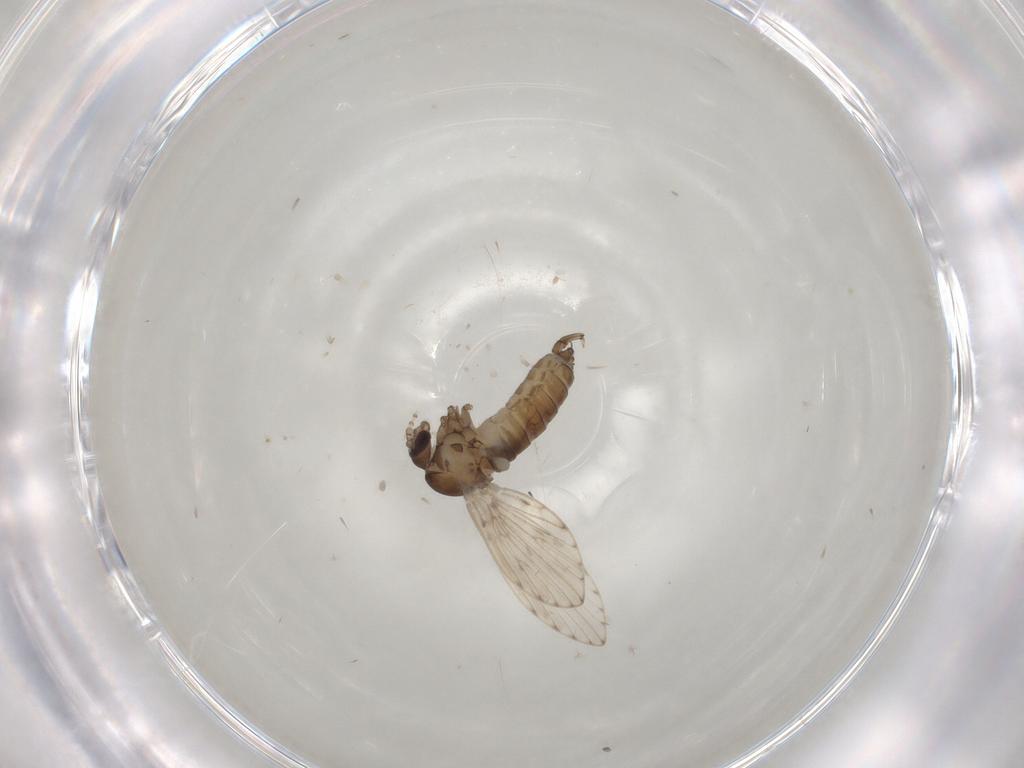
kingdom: Animalia
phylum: Arthropoda
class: Insecta
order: Diptera
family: Psychodidae
